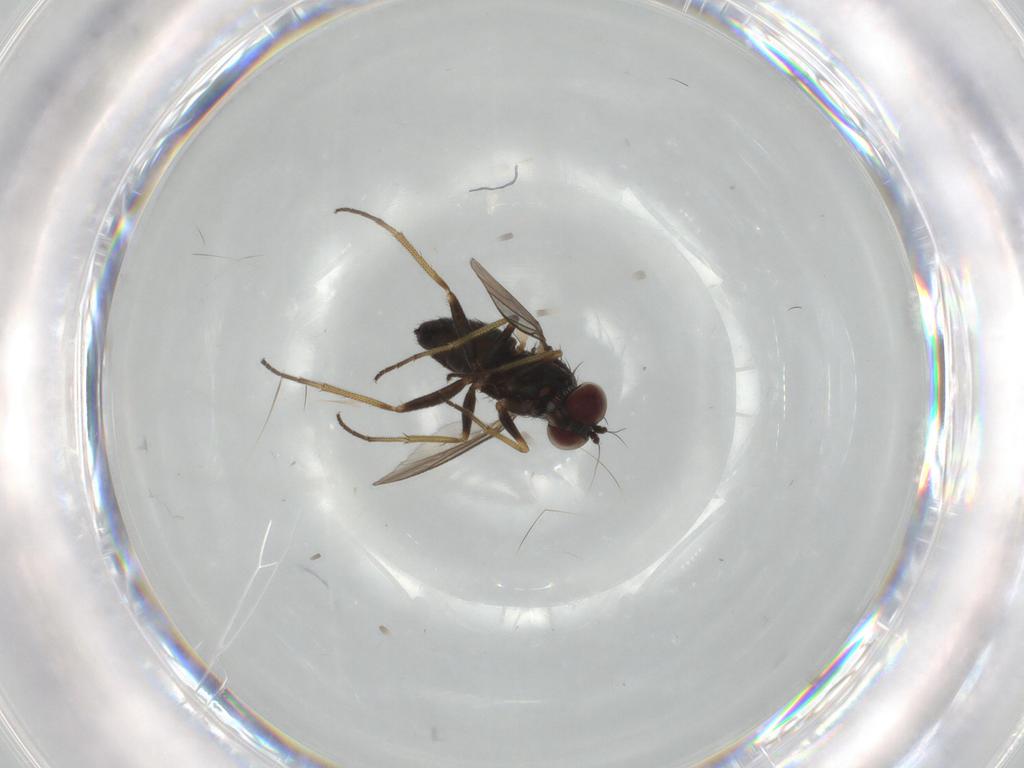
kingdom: Animalia
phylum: Arthropoda
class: Insecta
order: Diptera
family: Dolichopodidae
